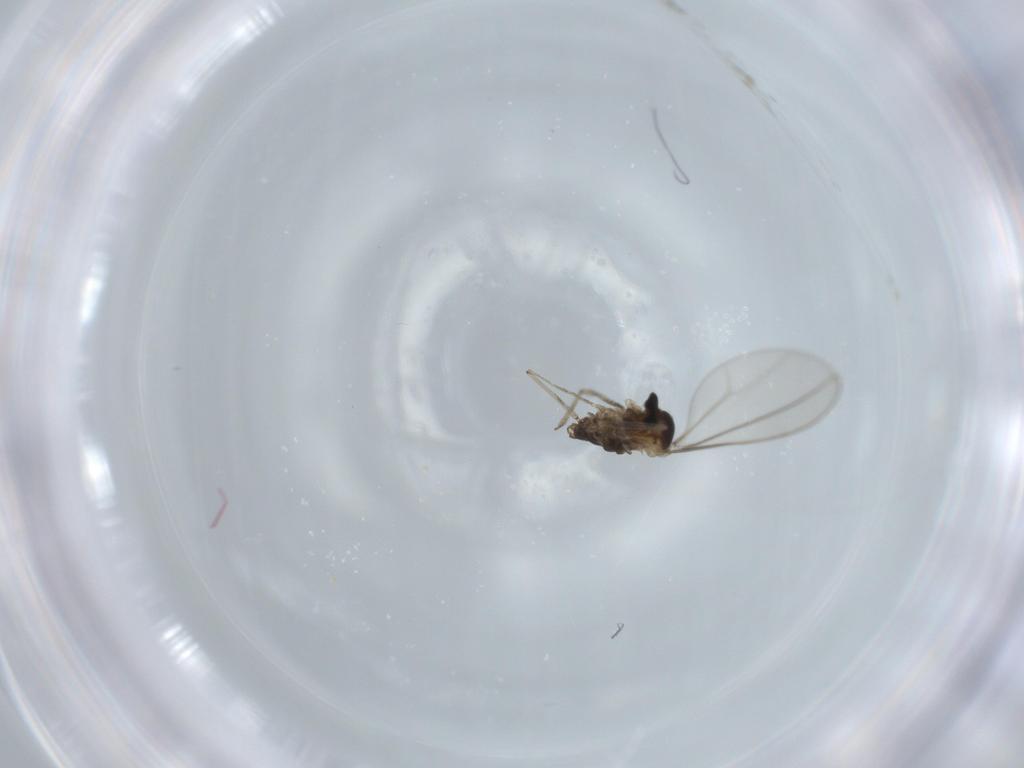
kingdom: Animalia
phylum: Arthropoda
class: Insecta
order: Diptera
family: Cecidomyiidae
